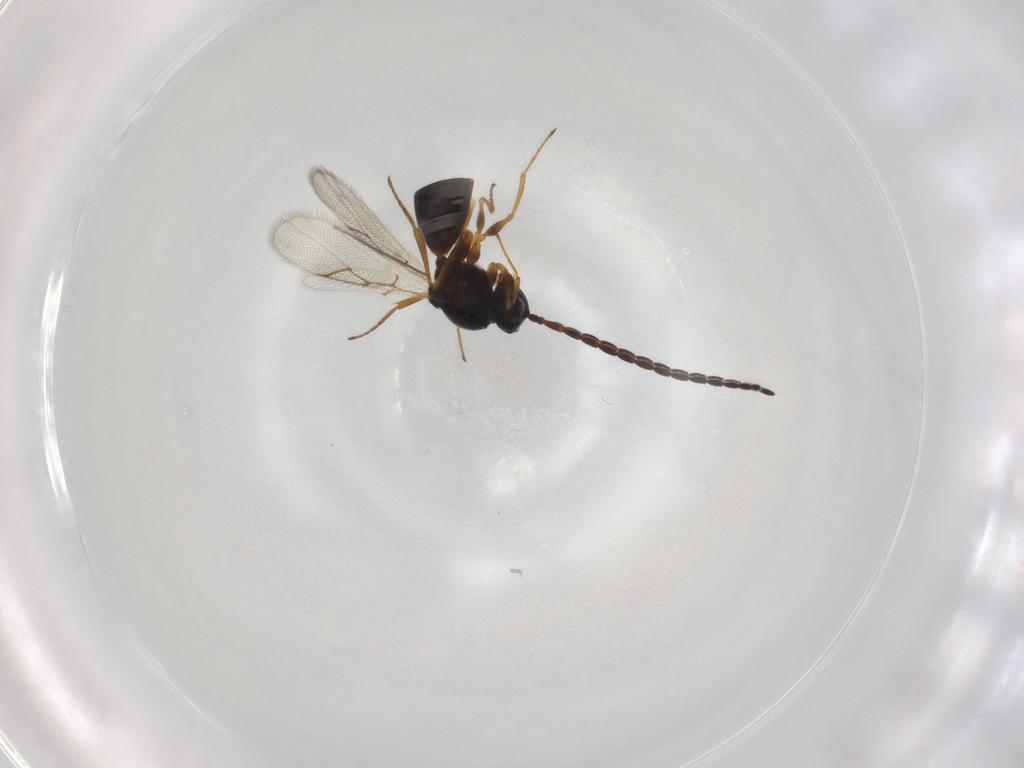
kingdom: Animalia
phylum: Arthropoda
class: Insecta
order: Hymenoptera
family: Figitidae
